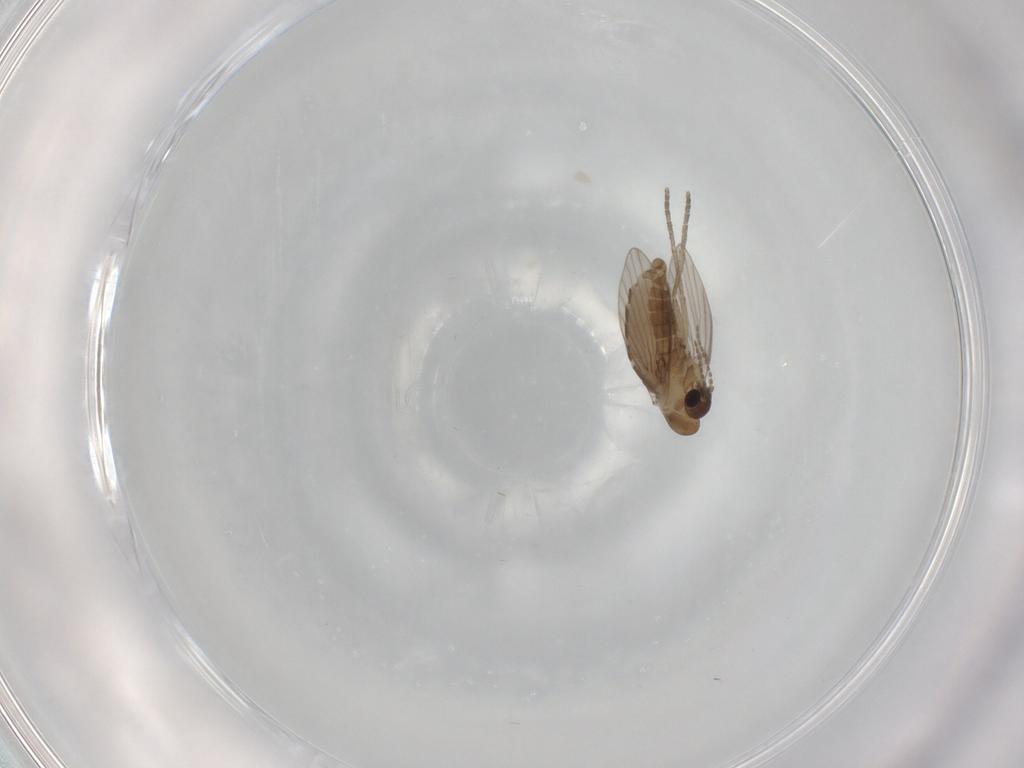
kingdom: Animalia
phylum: Arthropoda
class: Insecta
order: Diptera
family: Psychodidae
